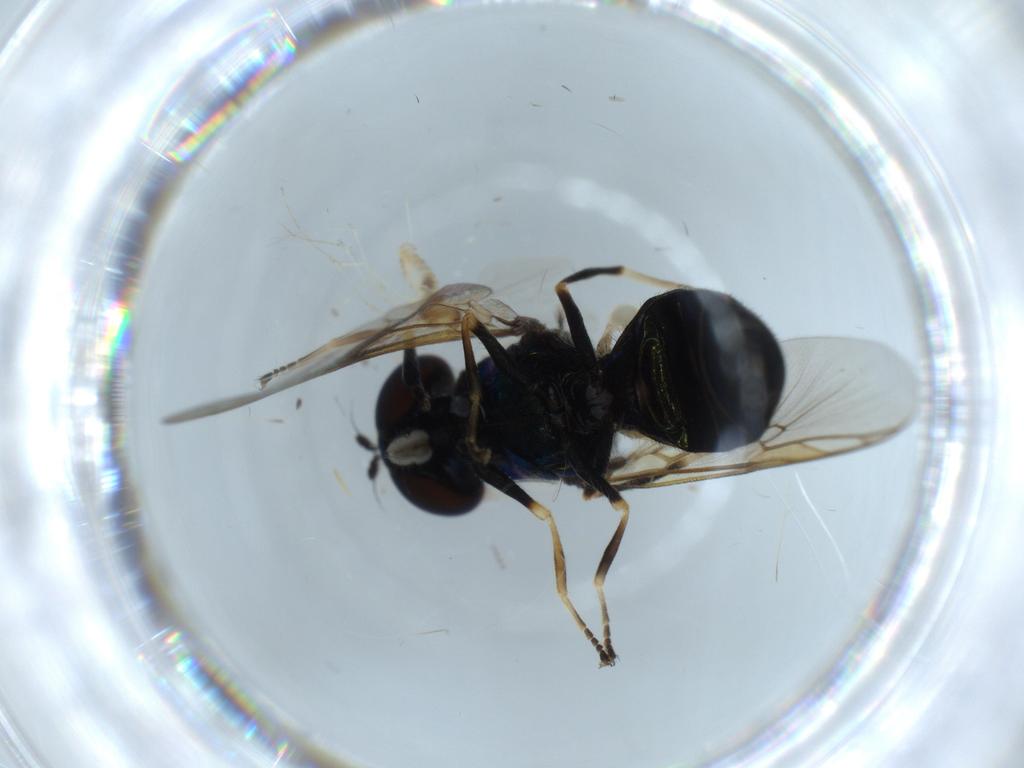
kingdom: Animalia
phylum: Arthropoda
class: Insecta
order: Diptera
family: Stratiomyidae
